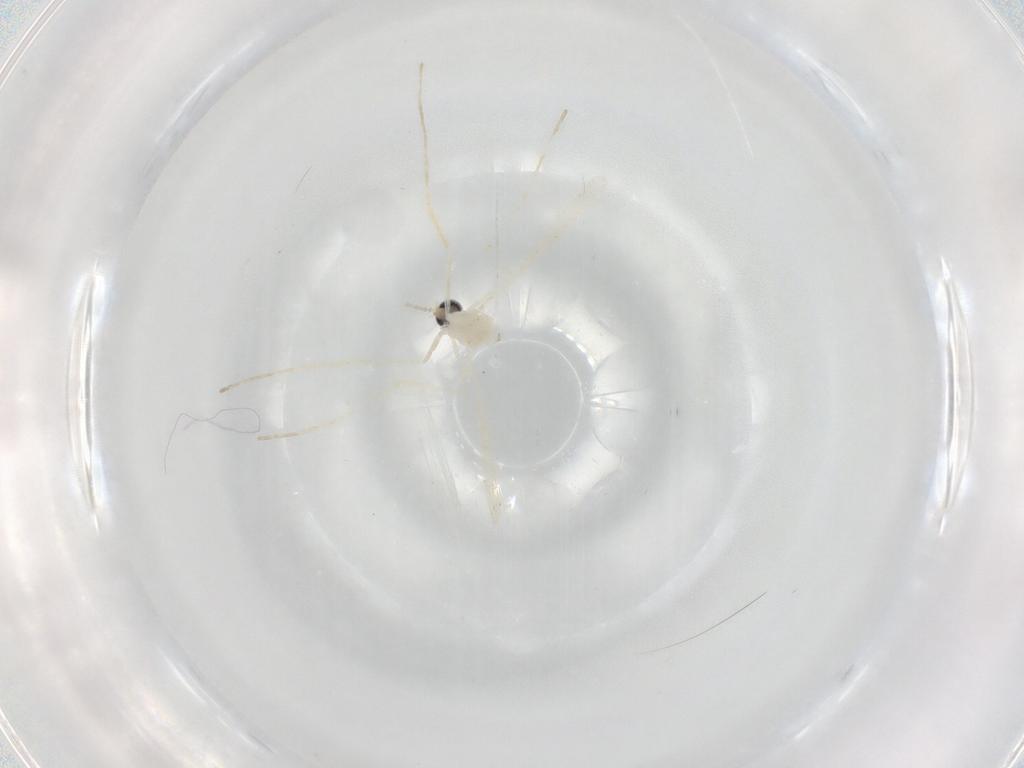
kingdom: Animalia
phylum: Arthropoda
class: Insecta
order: Diptera
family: Cecidomyiidae
